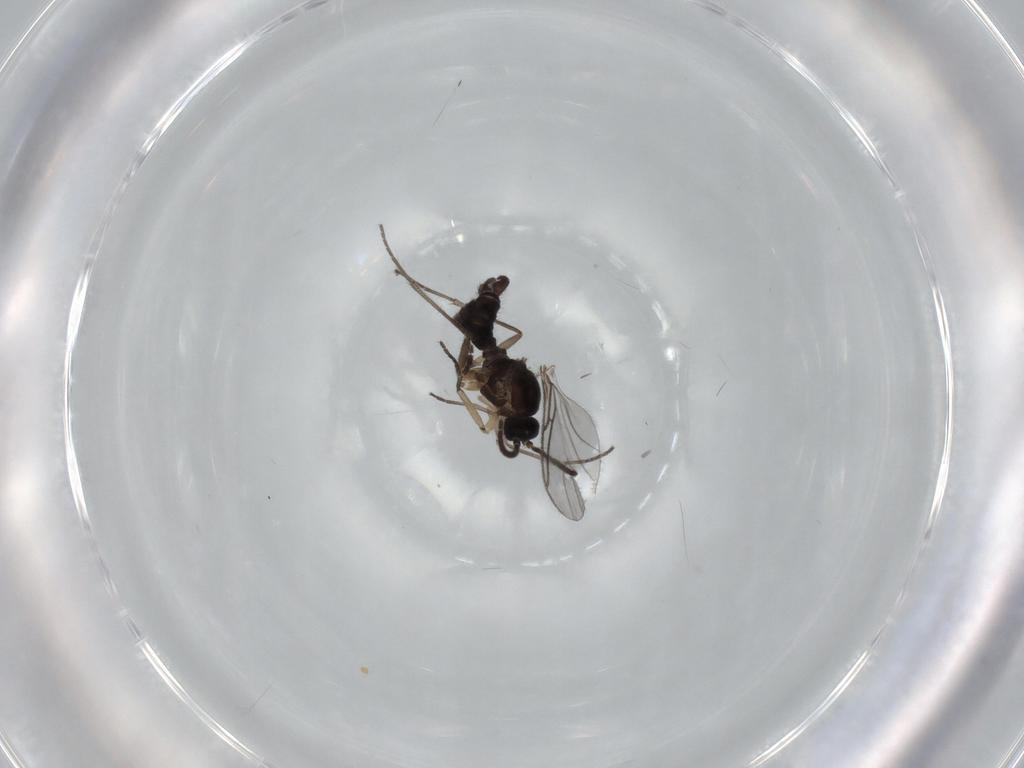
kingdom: Animalia
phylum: Arthropoda
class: Insecta
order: Diptera
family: Sciaridae
